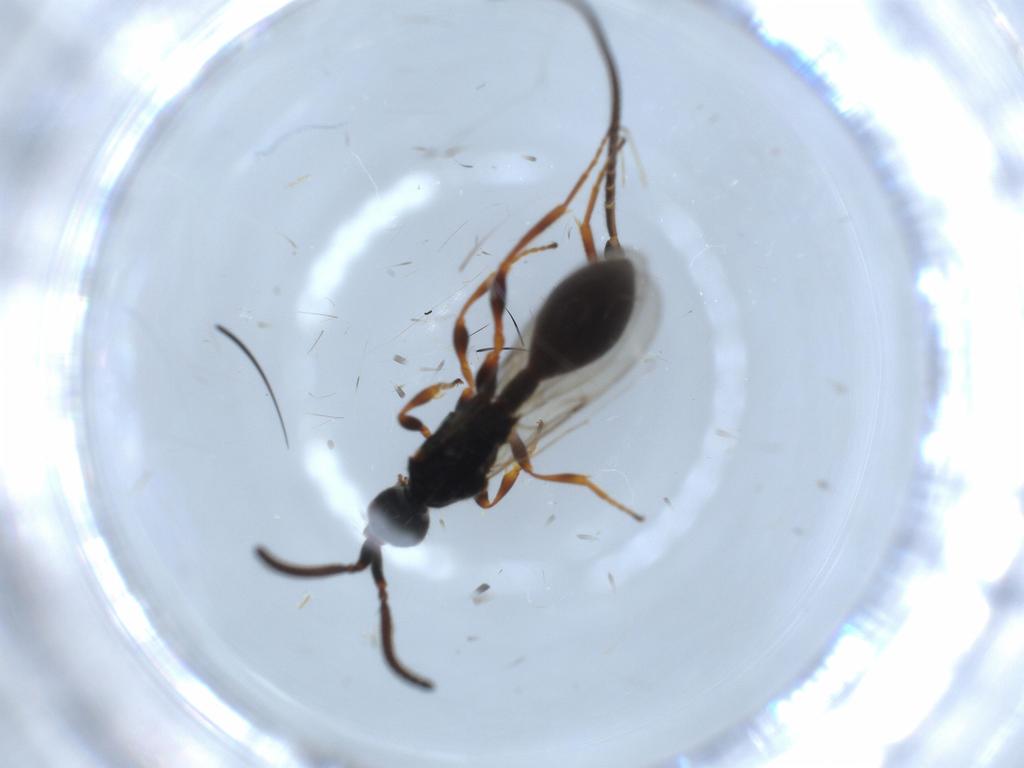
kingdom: Animalia
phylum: Arthropoda
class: Insecta
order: Hymenoptera
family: Ichneumonidae
